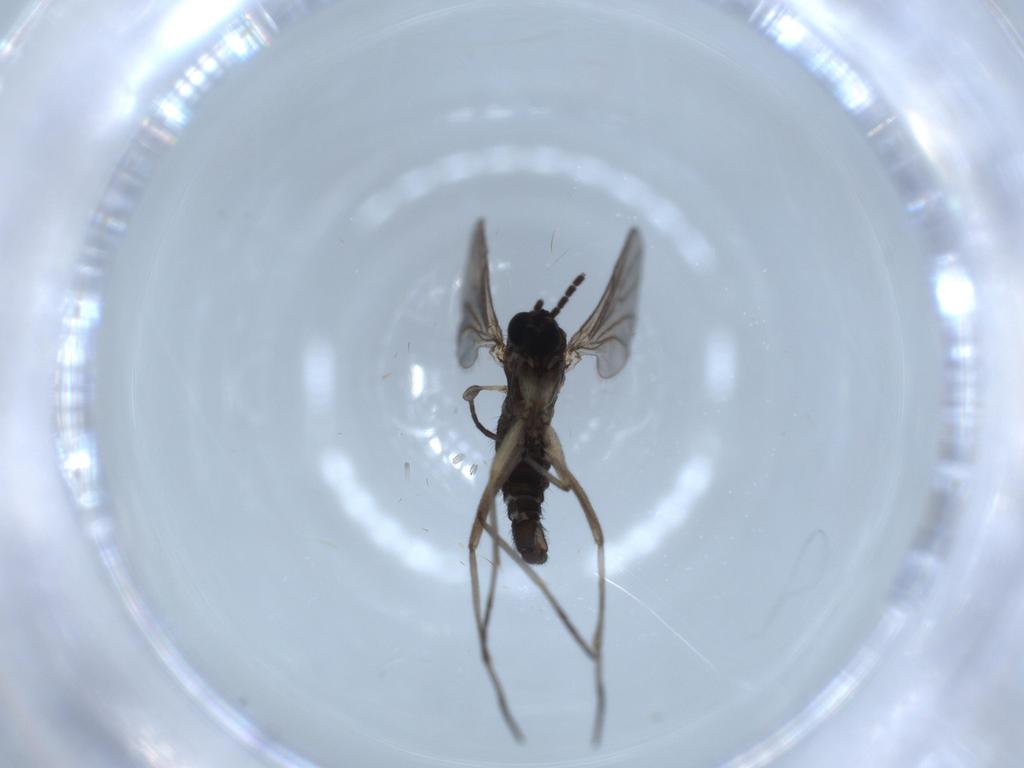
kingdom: Animalia
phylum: Arthropoda
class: Insecta
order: Diptera
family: Sciaridae
